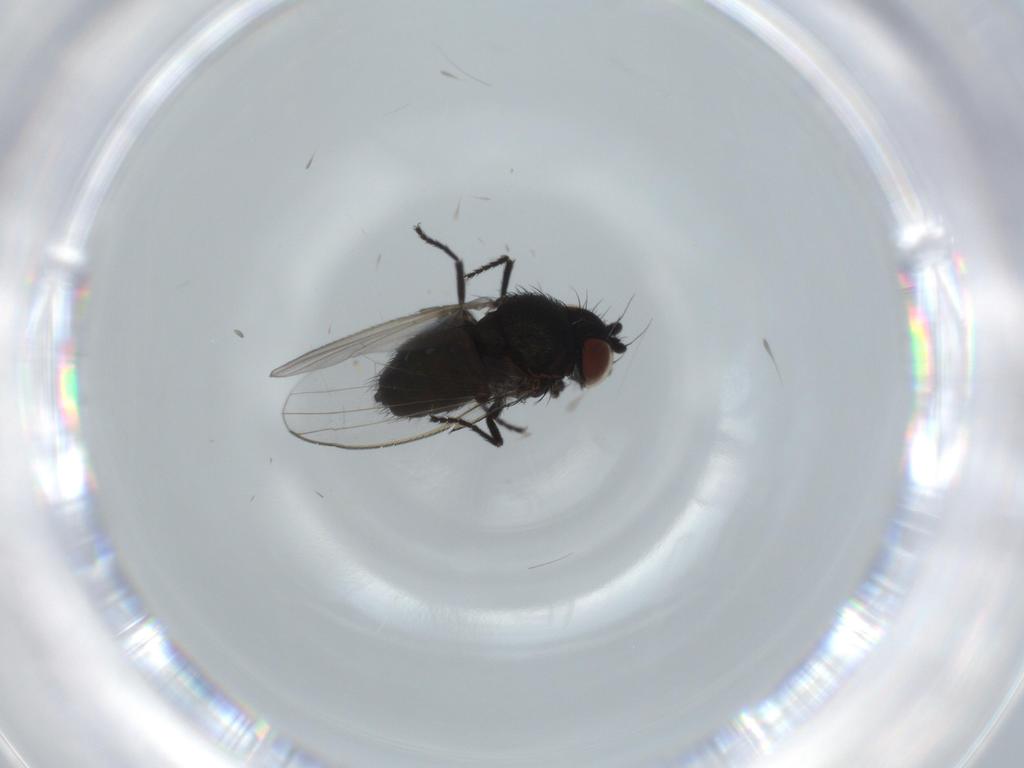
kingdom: Animalia
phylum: Arthropoda
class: Insecta
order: Diptera
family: Milichiidae
